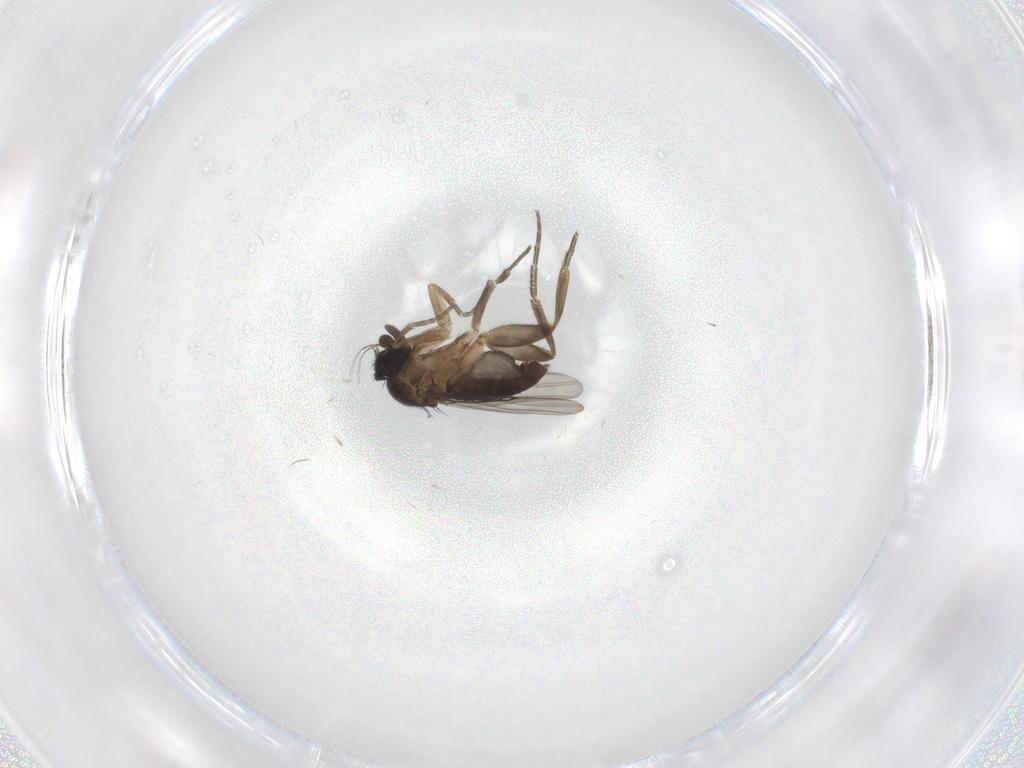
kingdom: Animalia
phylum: Arthropoda
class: Insecta
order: Diptera
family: Phoridae
